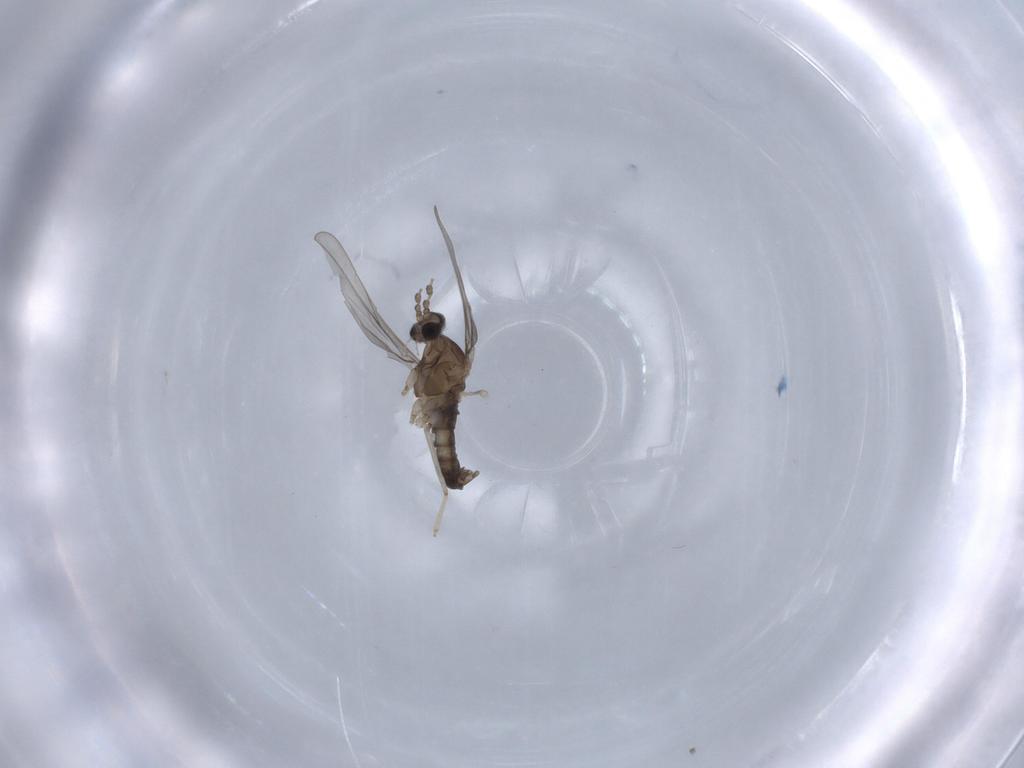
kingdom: Animalia
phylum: Arthropoda
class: Insecta
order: Diptera
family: Cecidomyiidae
